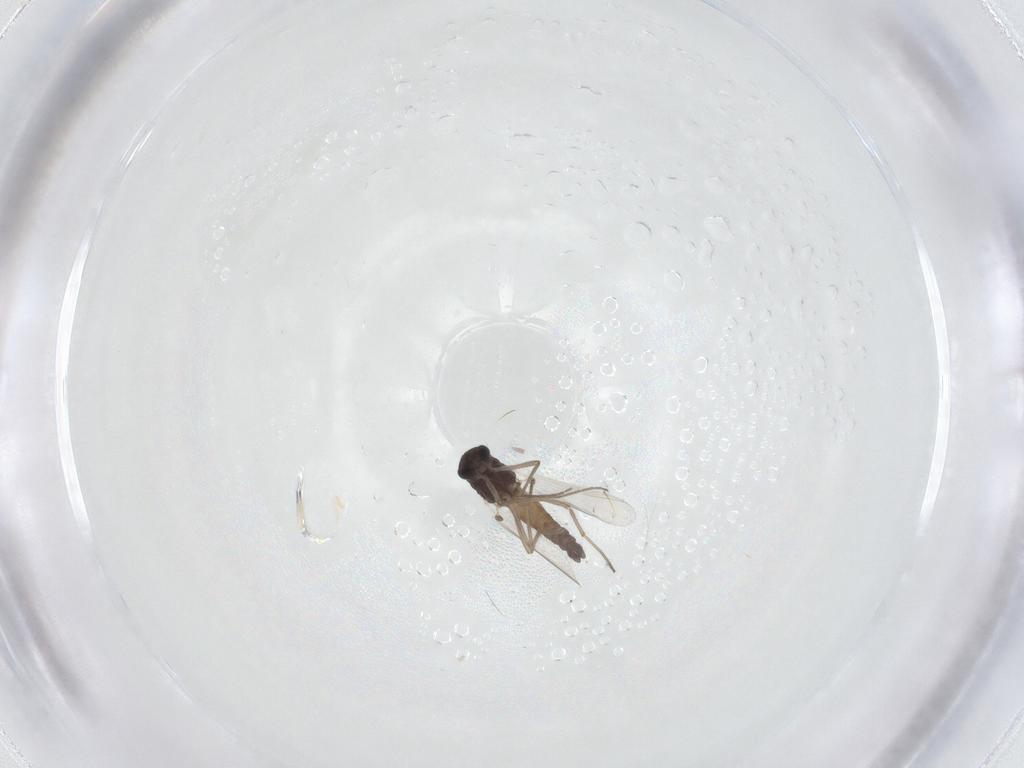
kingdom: Animalia
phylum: Arthropoda
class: Insecta
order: Diptera
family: Chironomidae
